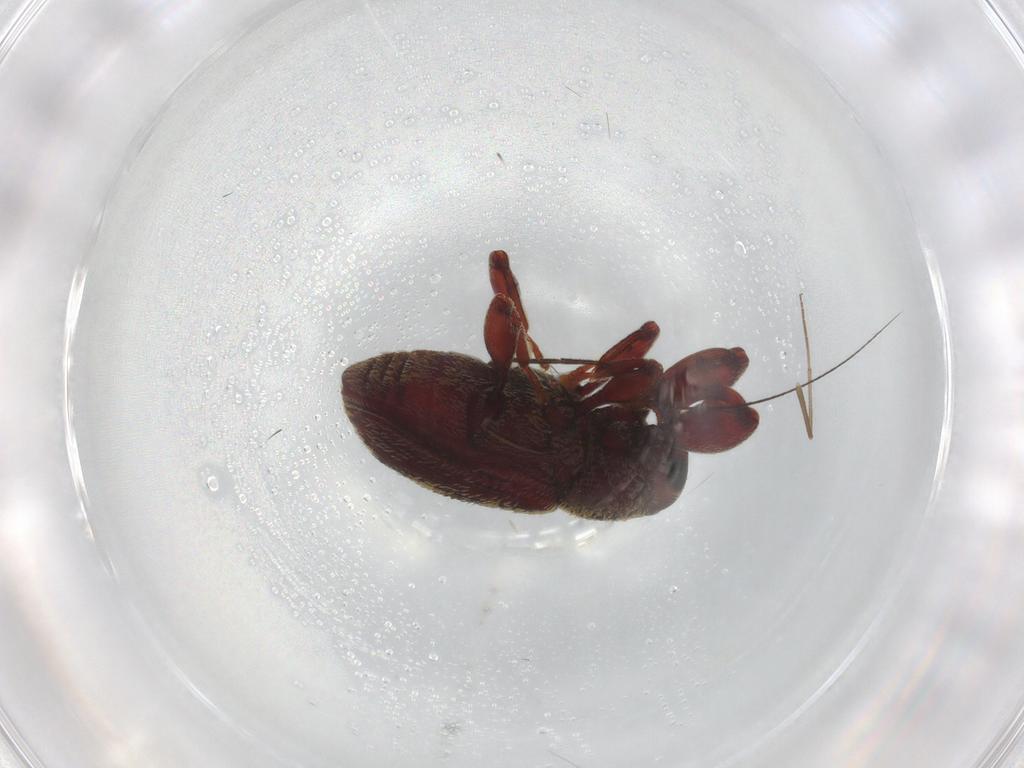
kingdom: Animalia
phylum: Arthropoda
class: Insecta
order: Coleoptera
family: Curculionidae
